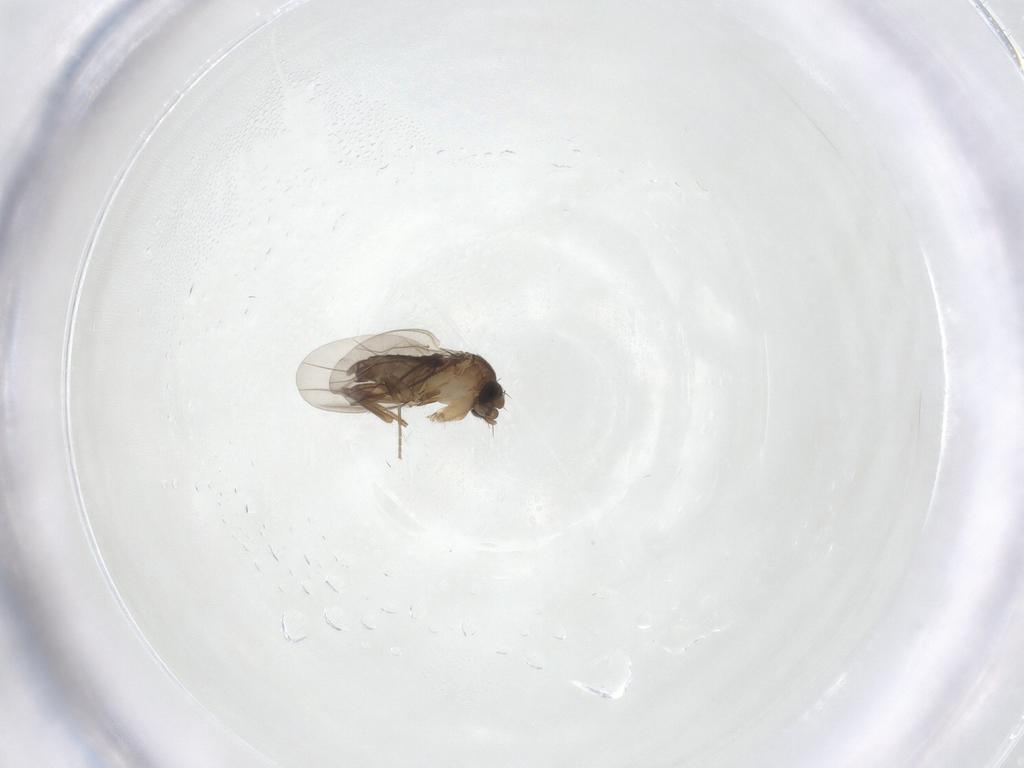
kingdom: Animalia
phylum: Arthropoda
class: Insecta
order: Diptera
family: Phoridae
